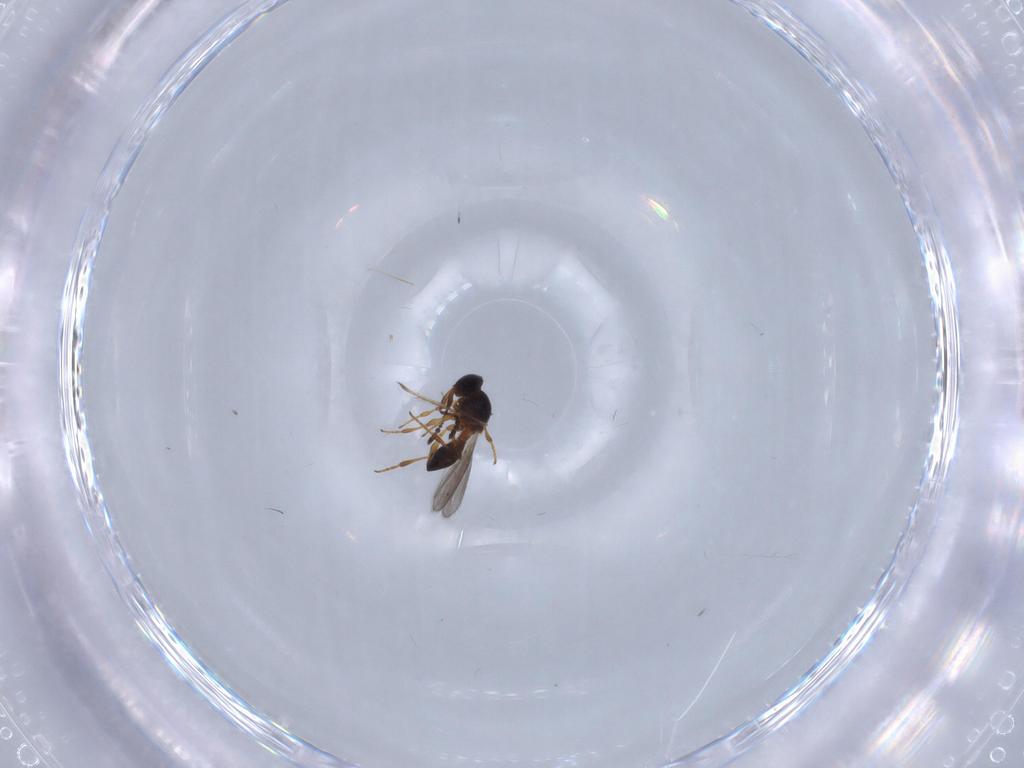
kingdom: Animalia
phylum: Arthropoda
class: Insecta
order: Hymenoptera
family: Platygastridae
